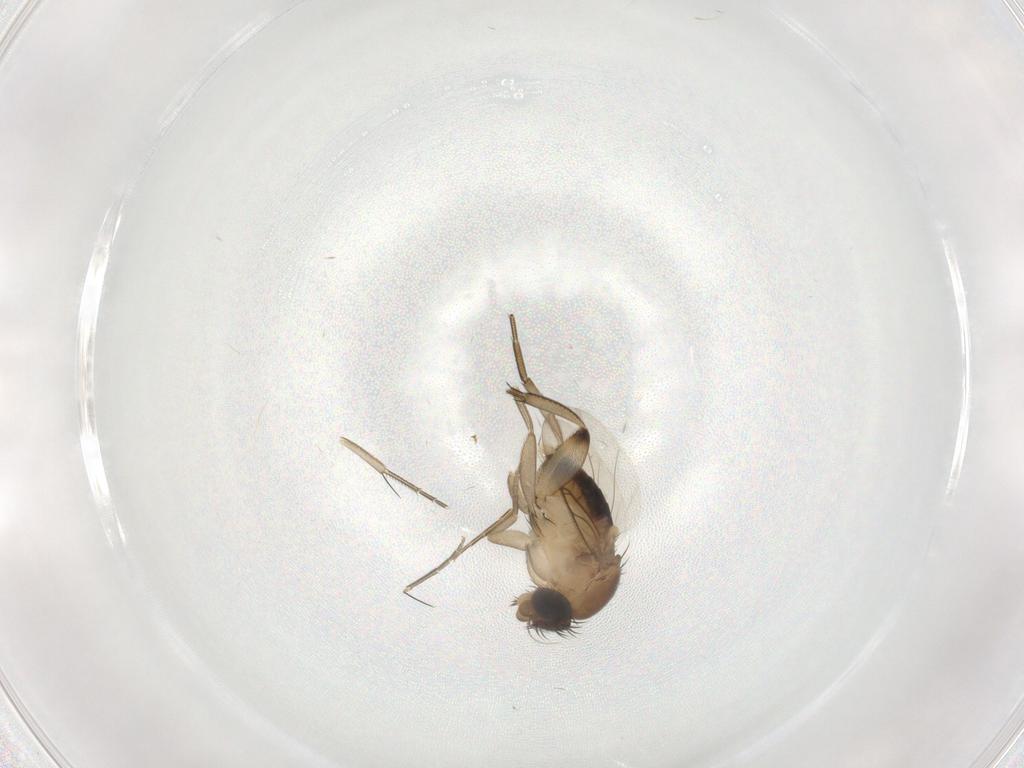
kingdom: Animalia
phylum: Arthropoda
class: Insecta
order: Diptera
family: Phoridae
